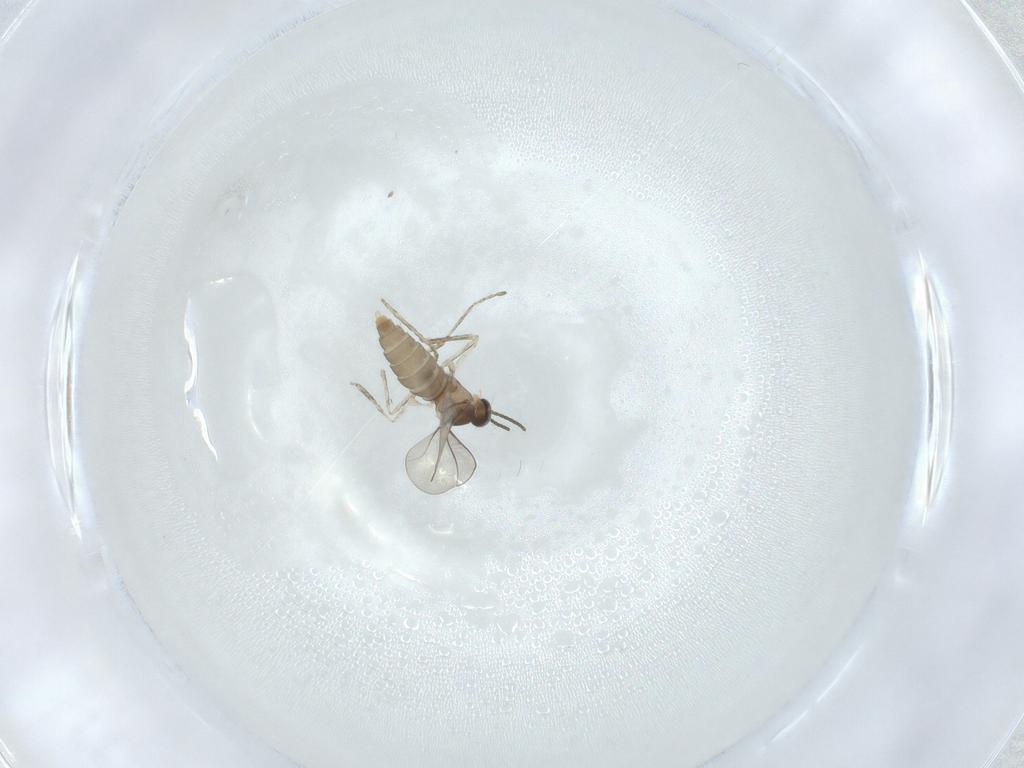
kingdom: Animalia
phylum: Arthropoda
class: Insecta
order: Diptera
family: Cecidomyiidae
